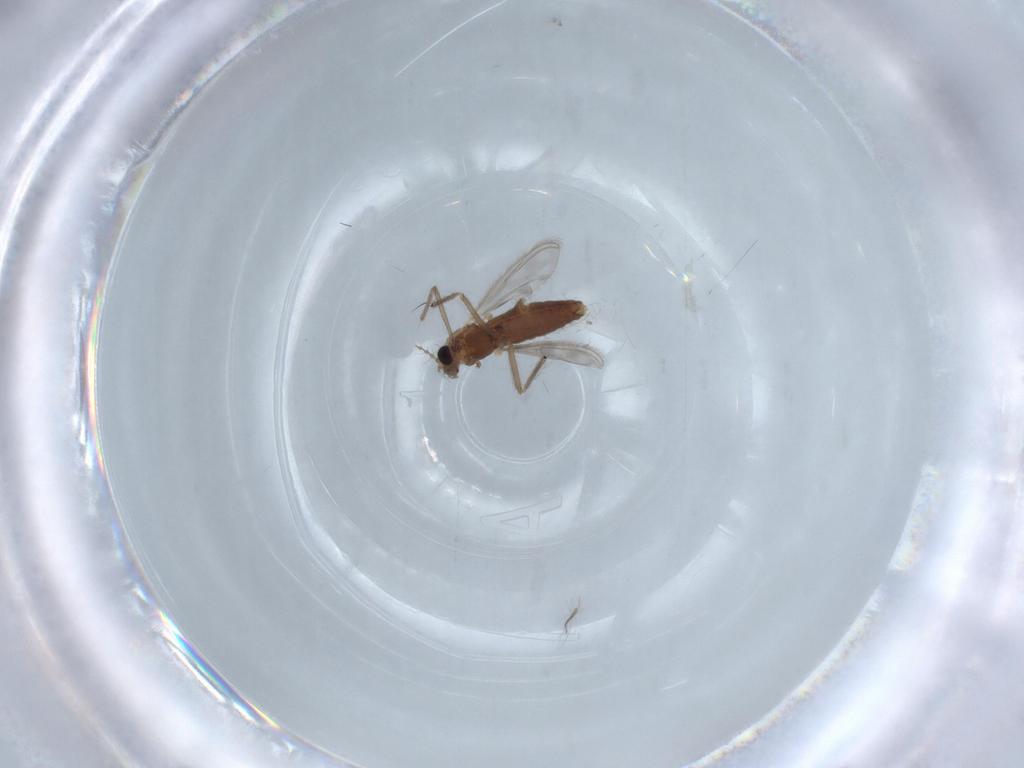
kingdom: Animalia
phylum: Arthropoda
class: Insecta
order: Diptera
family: Chironomidae
